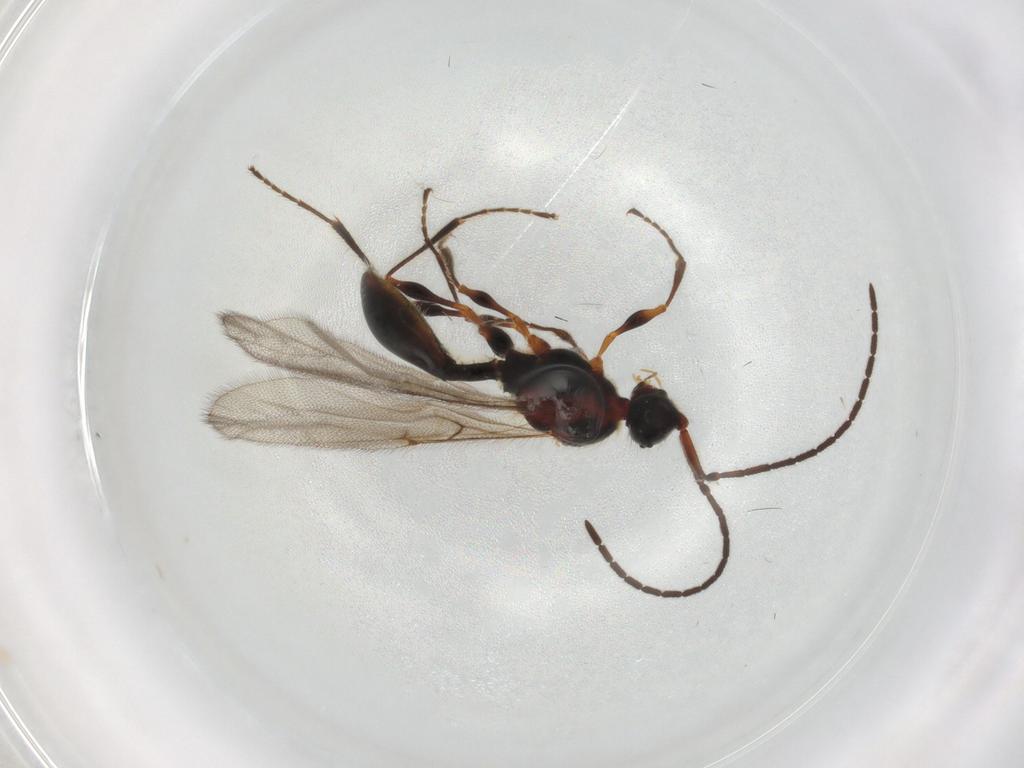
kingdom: Animalia
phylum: Arthropoda
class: Insecta
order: Hymenoptera
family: Diapriidae
